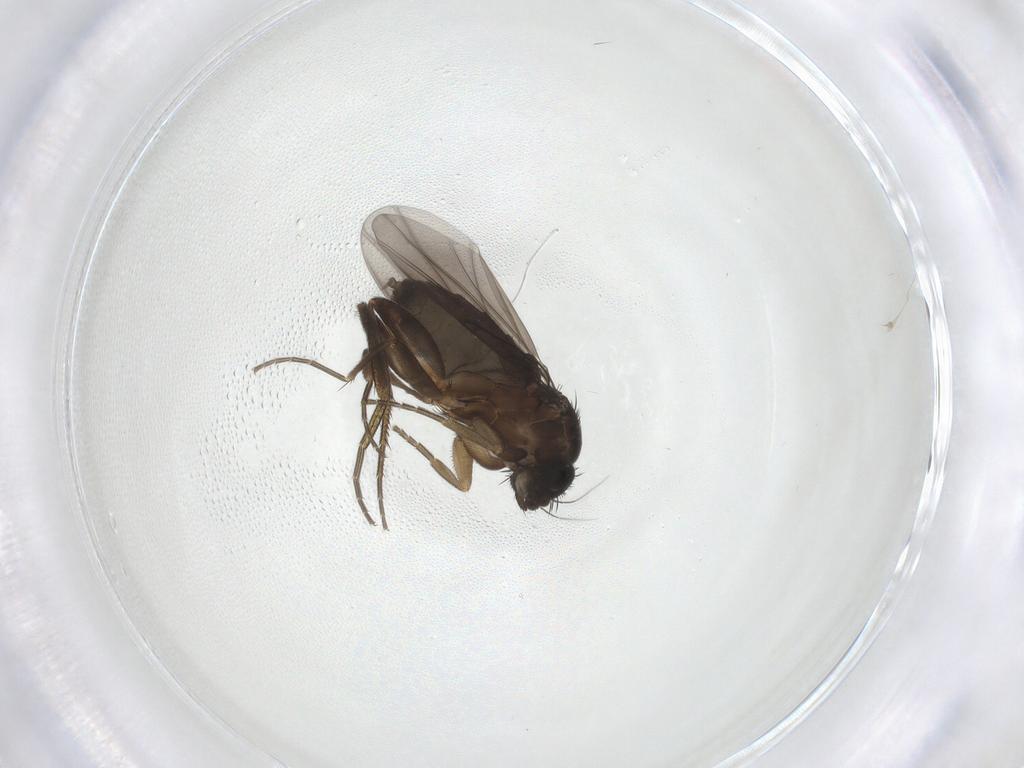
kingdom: Animalia
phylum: Arthropoda
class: Insecta
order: Diptera
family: Phoridae
